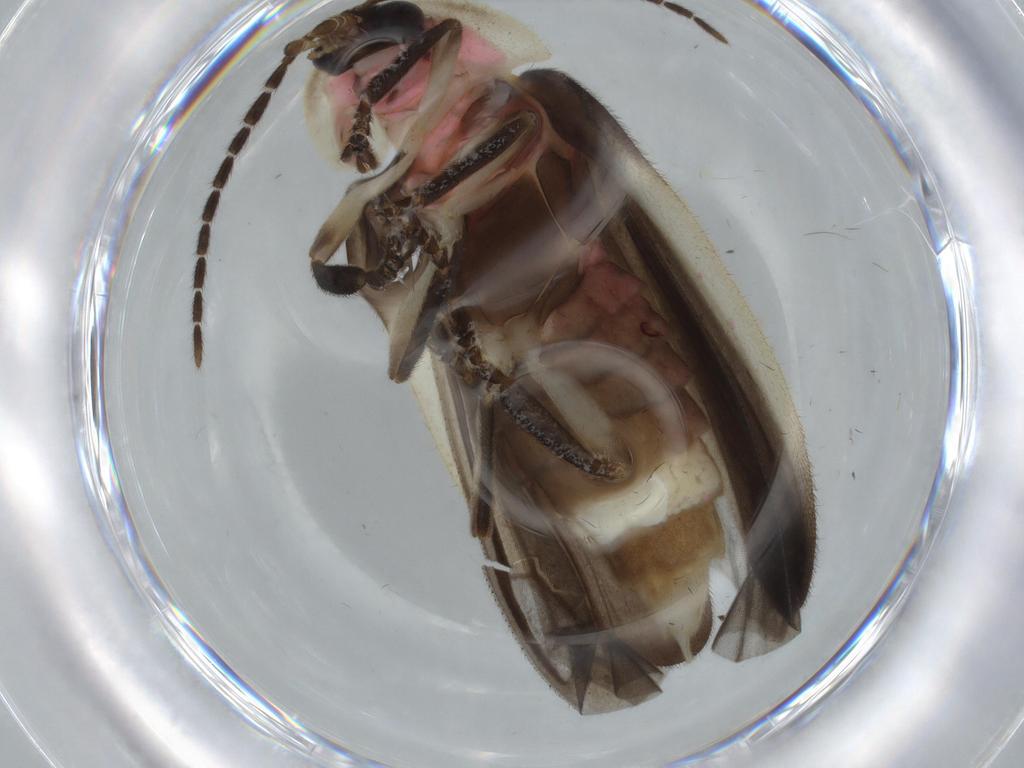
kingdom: Animalia
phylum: Arthropoda
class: Insecta
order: Coleoptera
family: Lampyridae
